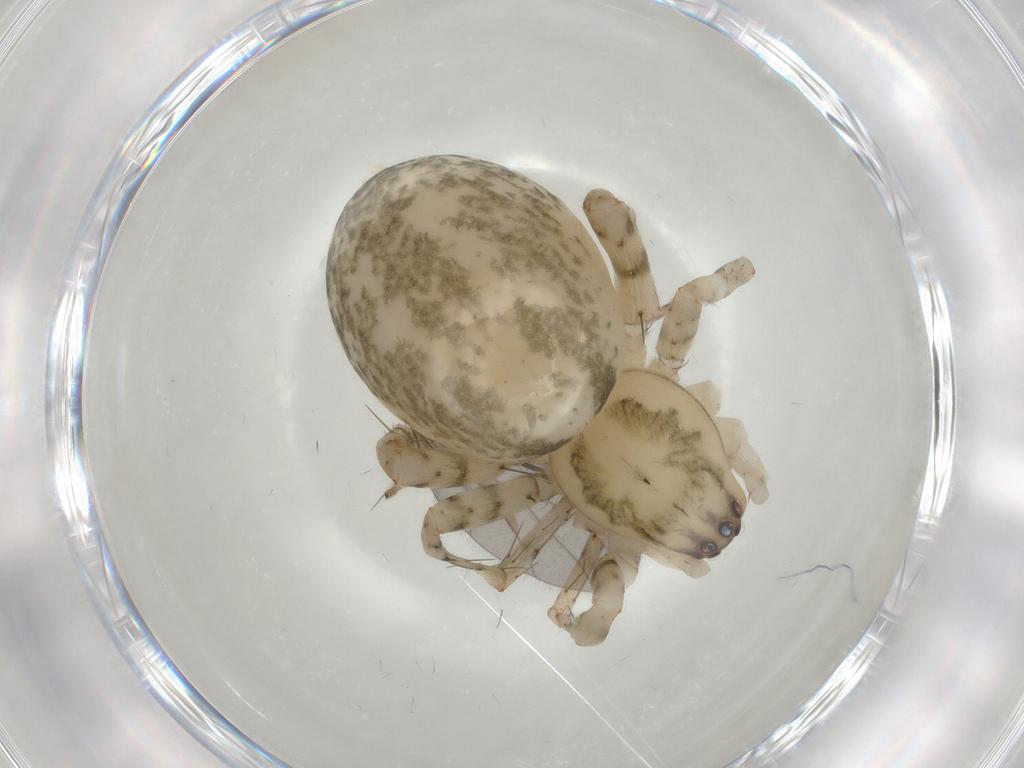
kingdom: Animalia
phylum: Arthropoda
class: Arachnida
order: Araneae
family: Anyphaenidae
